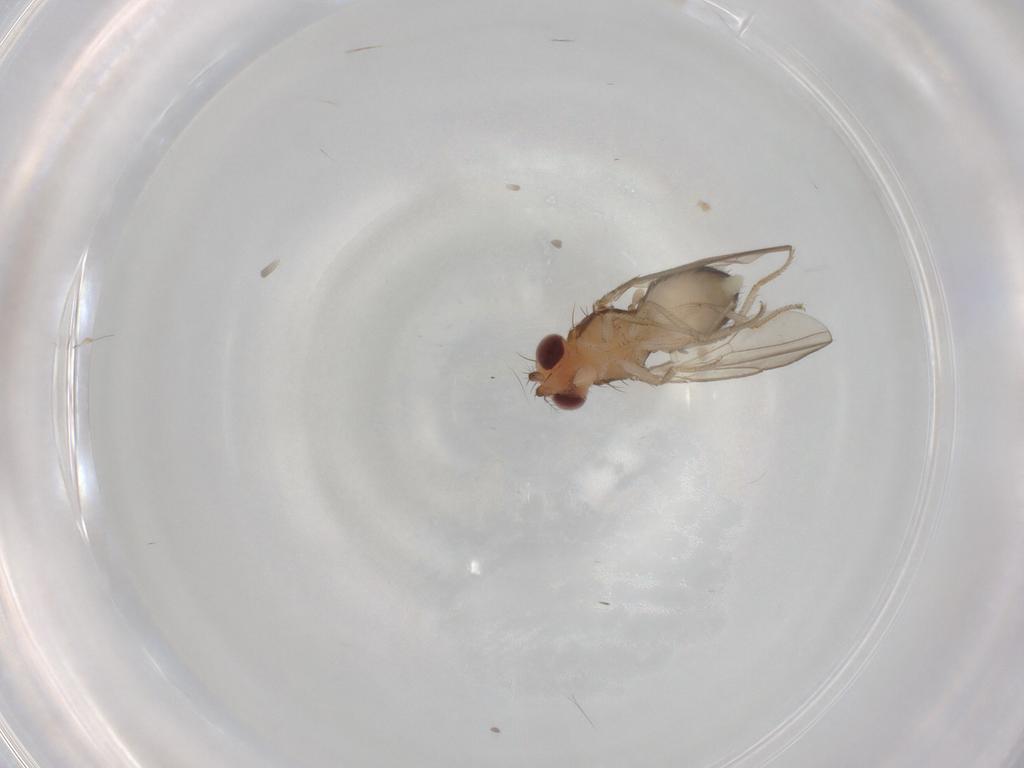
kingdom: Animalia
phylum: Arthropoda
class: Insecta
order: Diptera
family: Drosophilidae
